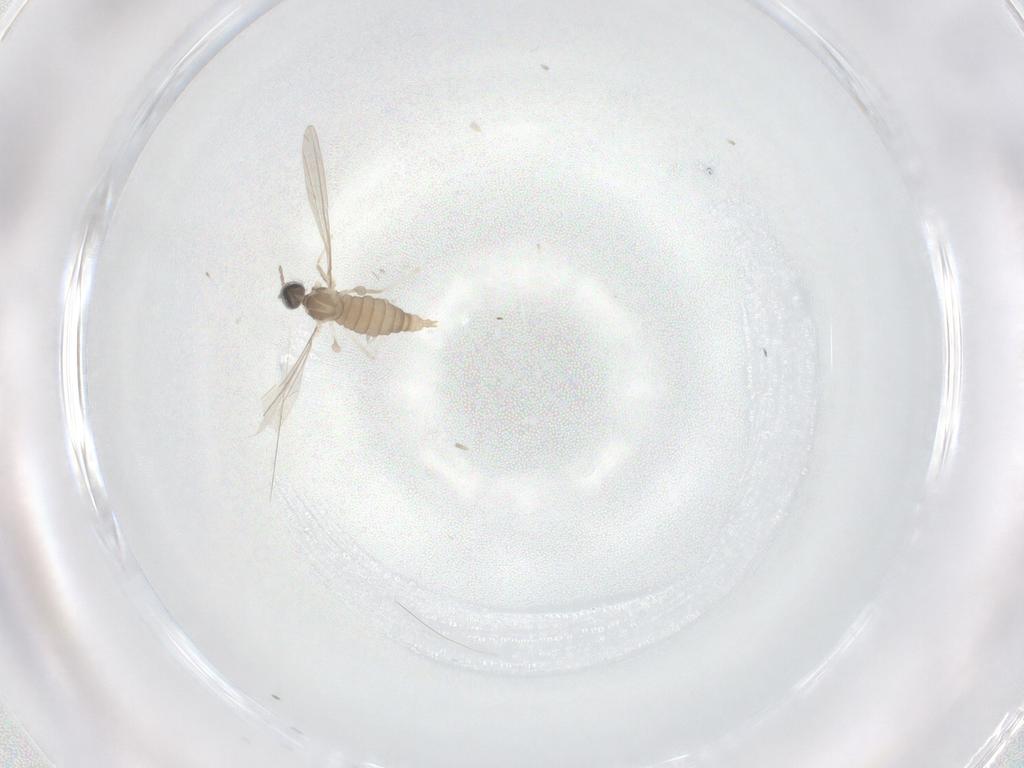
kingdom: Animalia
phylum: Arthropoda
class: Insecta
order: Diptera
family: Cecidomyiidae
